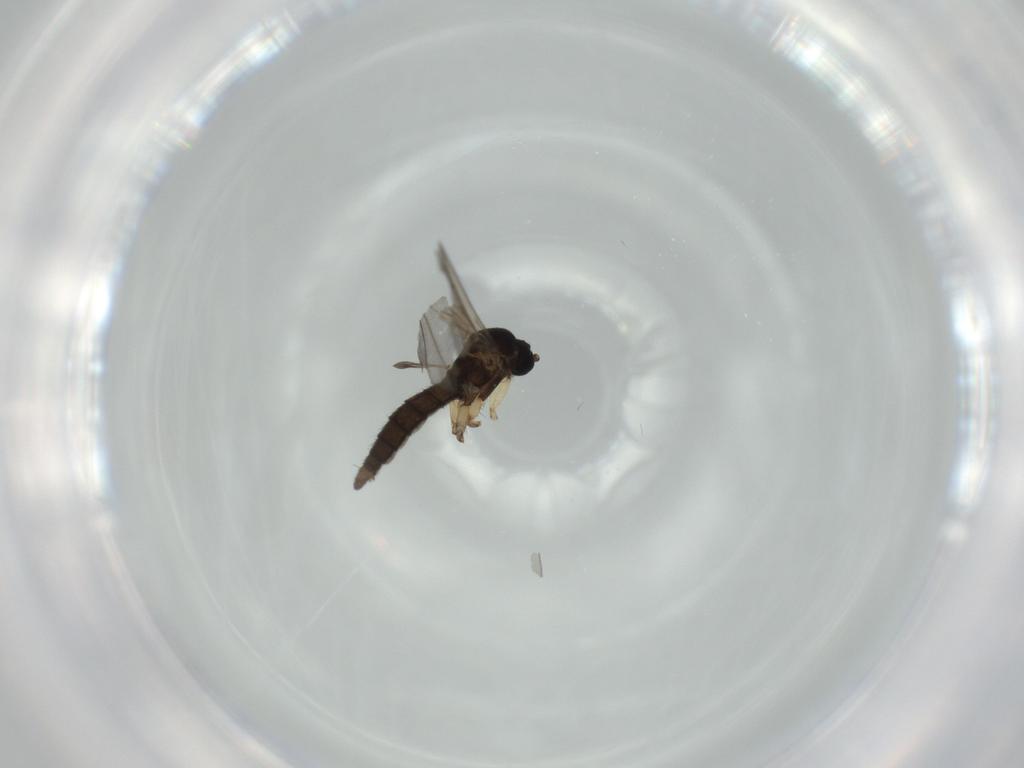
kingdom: Animalia
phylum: Arthropoda
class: Insecta
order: Diptera
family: Sciaridae
